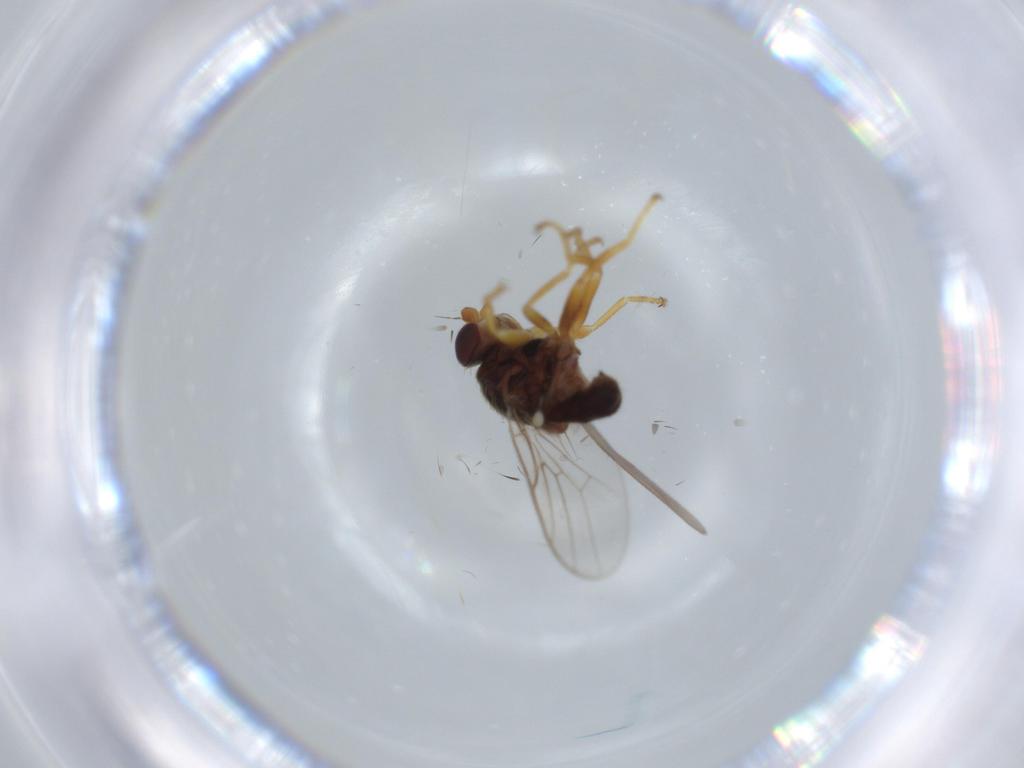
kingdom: Animalia
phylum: Arthropoda
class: Insecta
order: Diptera
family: Chloropidae
